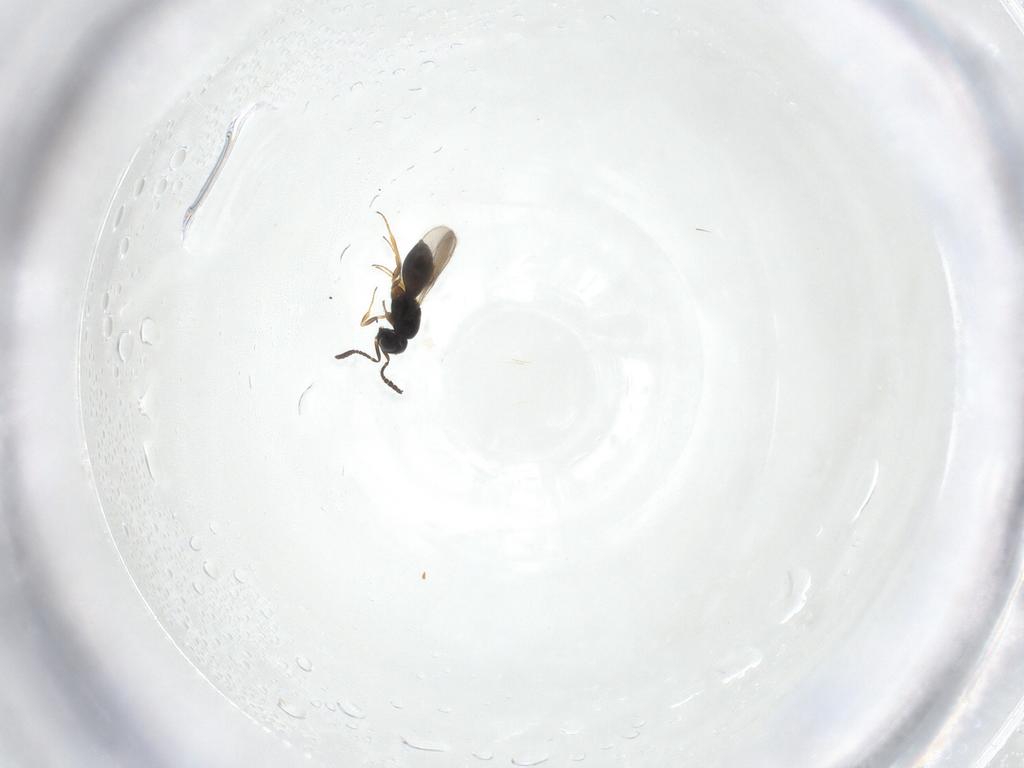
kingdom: Animalia
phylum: Arthropoda
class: Insecta
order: Hymenoptera
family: Scelionidae
